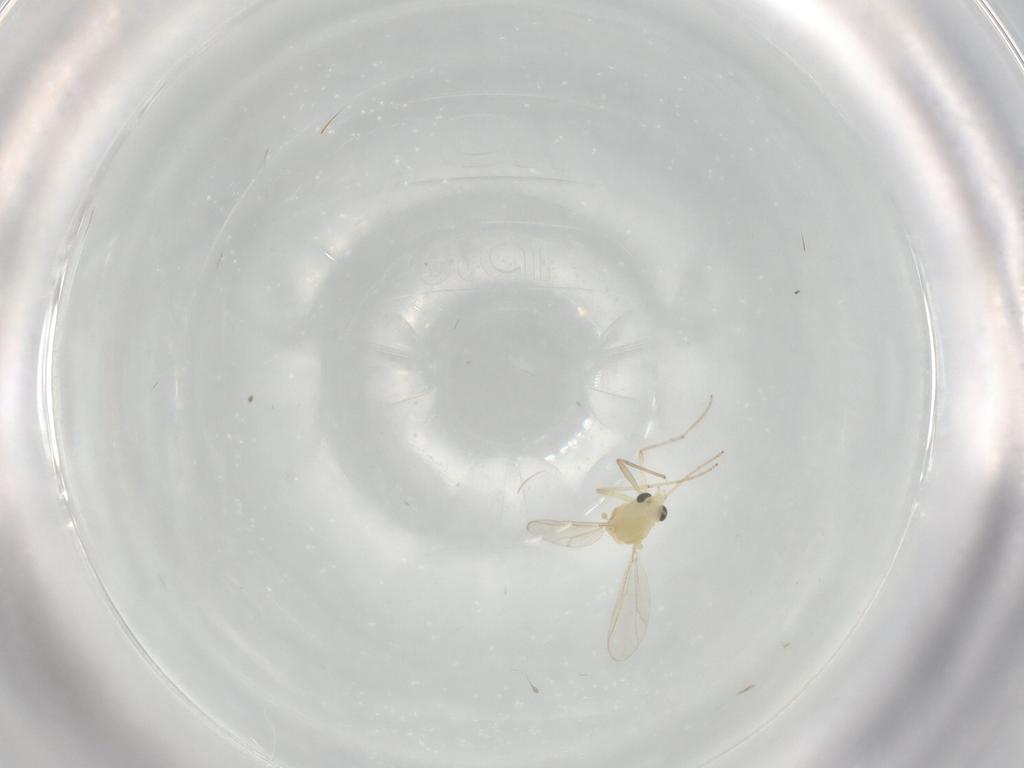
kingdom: Animalia
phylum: Arthropoda
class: Insecta
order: Diptera
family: Chironomidae
